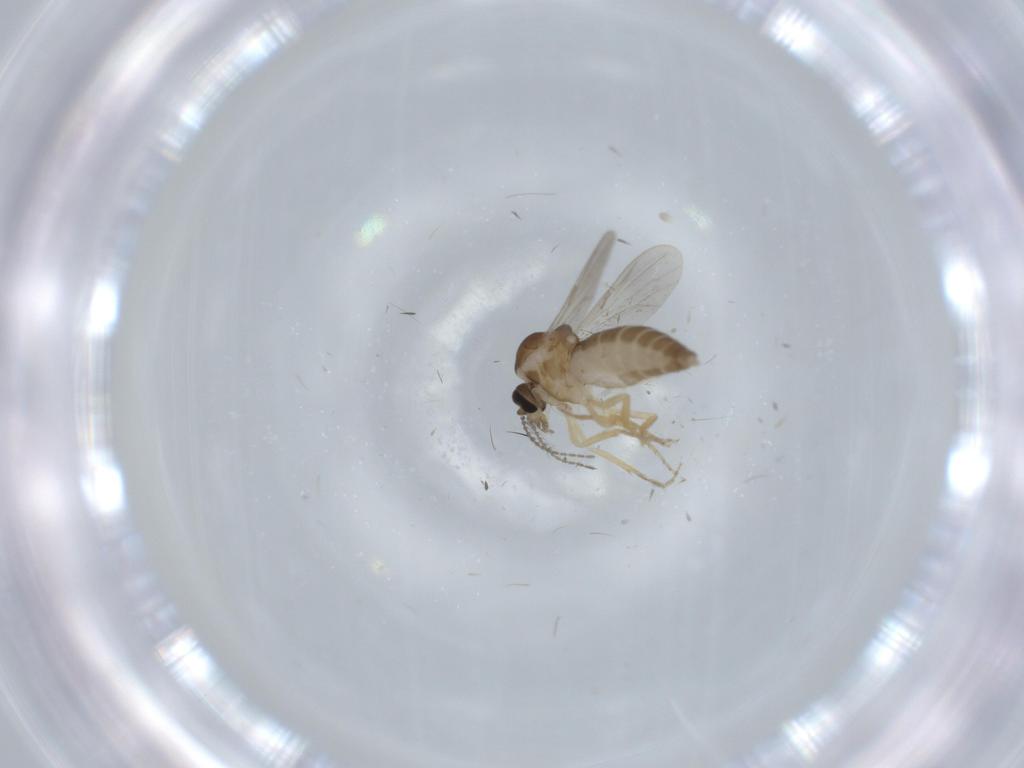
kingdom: Animalia
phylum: Arthropoda
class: Insecta
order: Diptera
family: Ceratopogonidae
